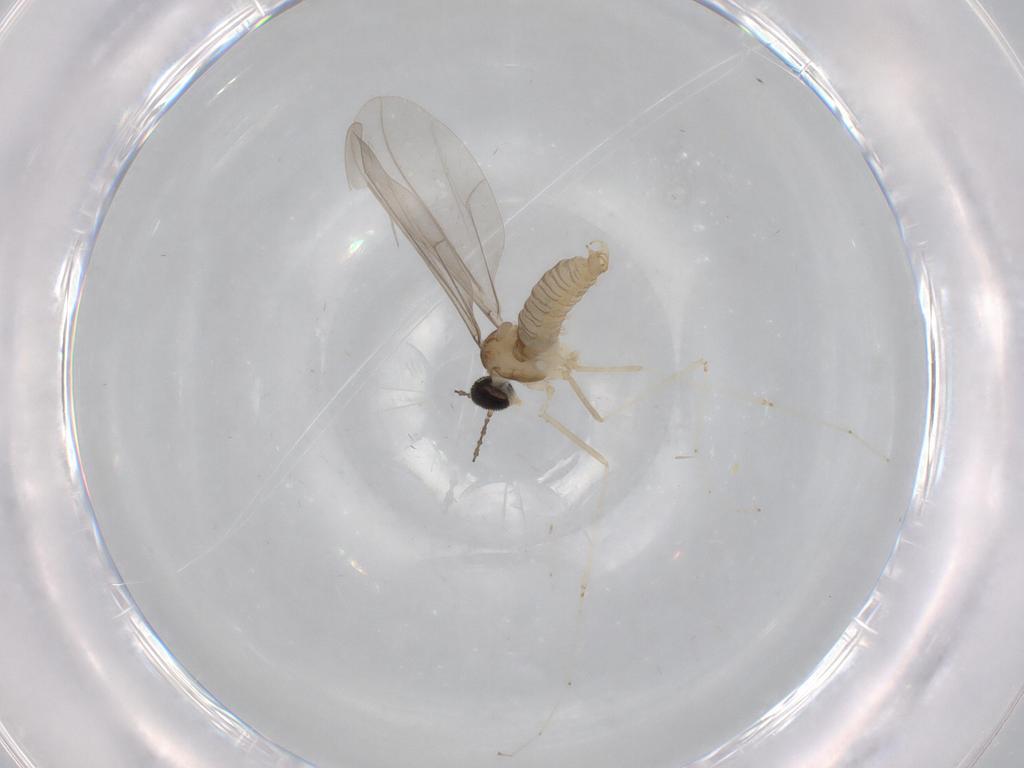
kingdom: Animalia
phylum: Arthropoda
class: Insecta
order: Diptera
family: Cecidomyiidae
